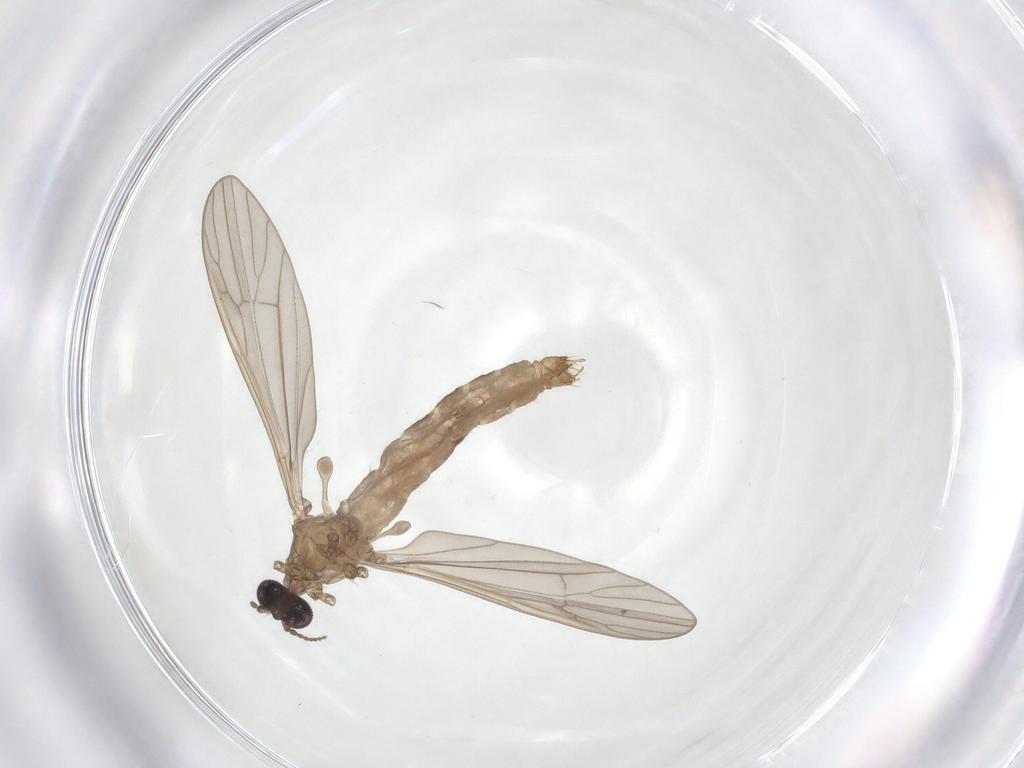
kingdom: Animalia
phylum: Arthropoda
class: Insecta
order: Diptera
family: Limoniidae
